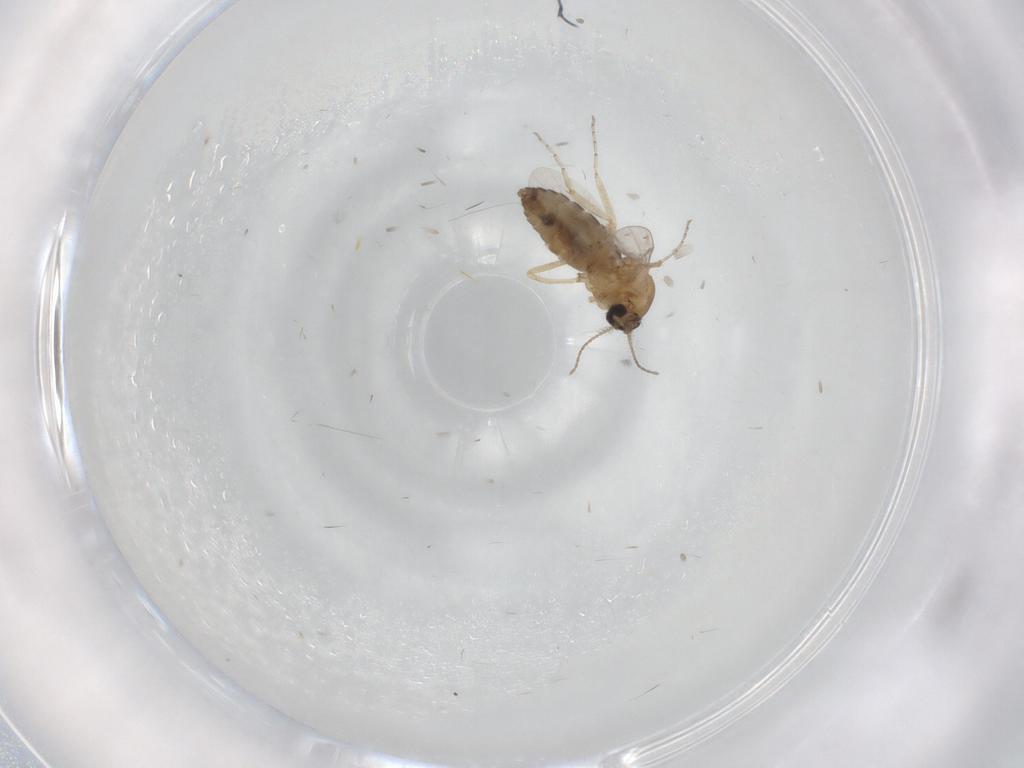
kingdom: Animalia
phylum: Arthropoda
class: Insecta
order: Diptera
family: Ceratopogonidae
